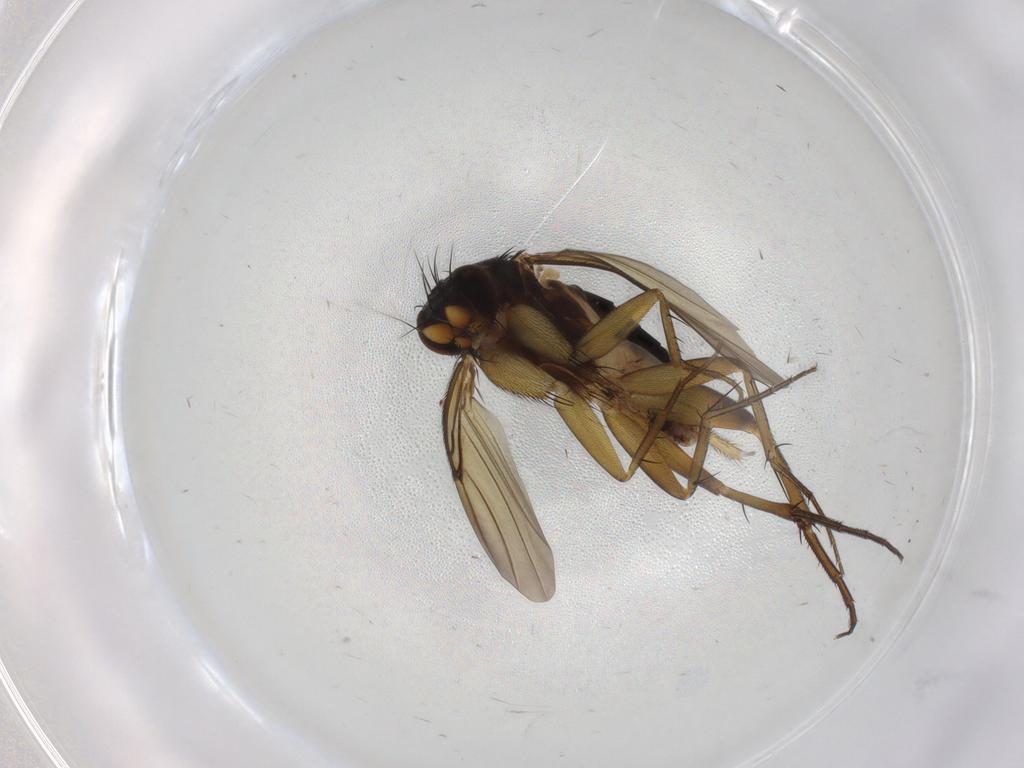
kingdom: Animalia
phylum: Arthropoda
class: Insecta
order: Diptera
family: Phoridae
